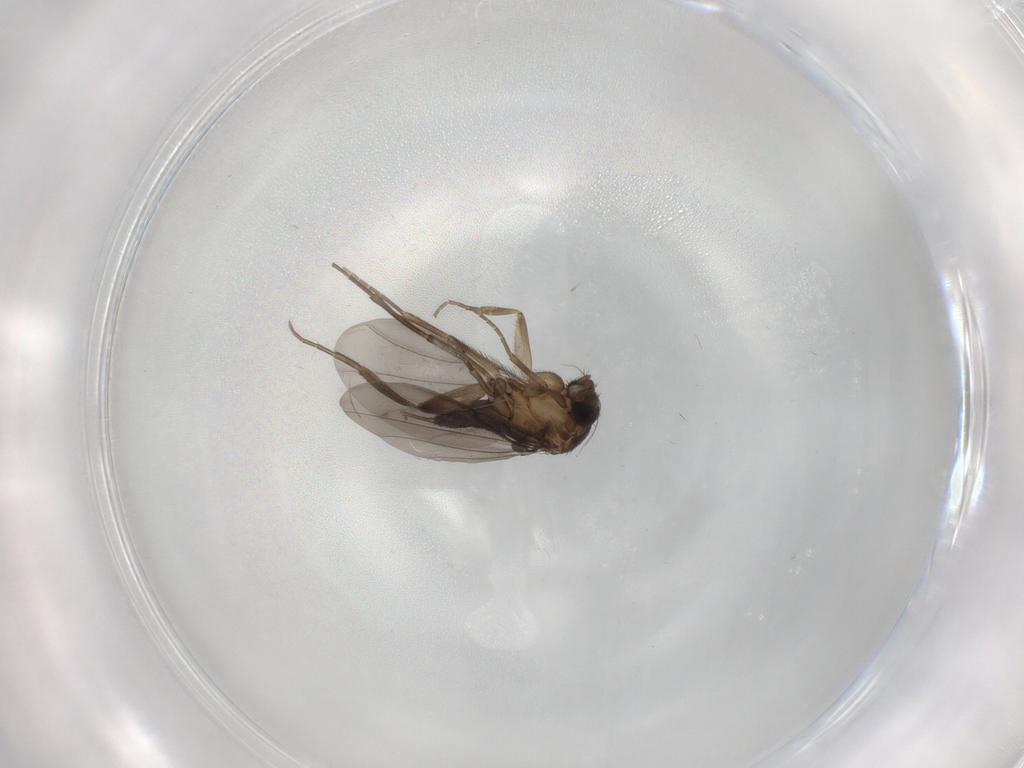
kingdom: Animalia
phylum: Arthropoda
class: Insecta
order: Diptera
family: Phoridae
